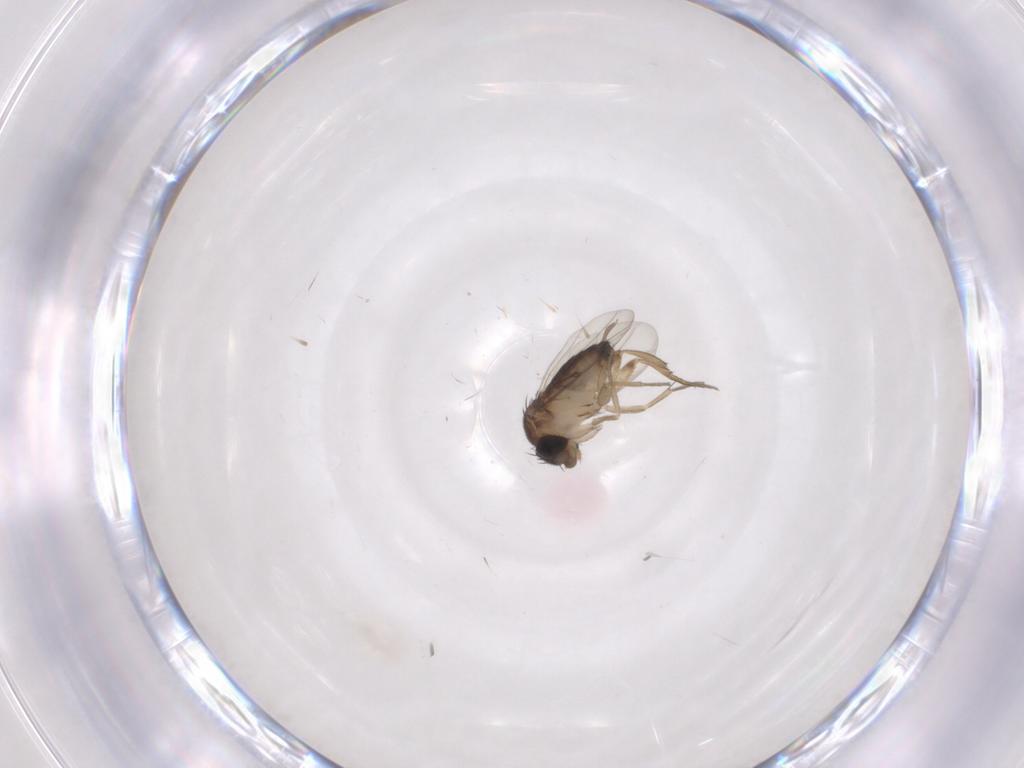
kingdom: Animalia
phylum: Arthropoda
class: Insecta
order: Diptera
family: Phoridae
